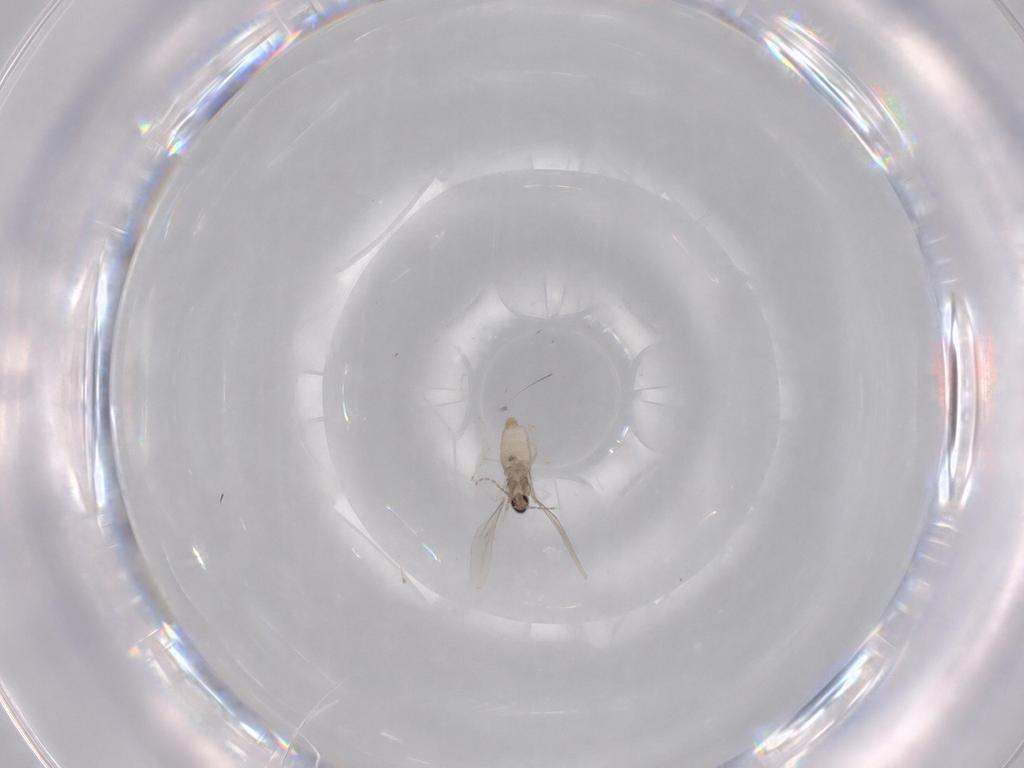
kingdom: Animalia
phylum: Arthropoda
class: Insecta
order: Diptera
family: Cecidomyiidae
